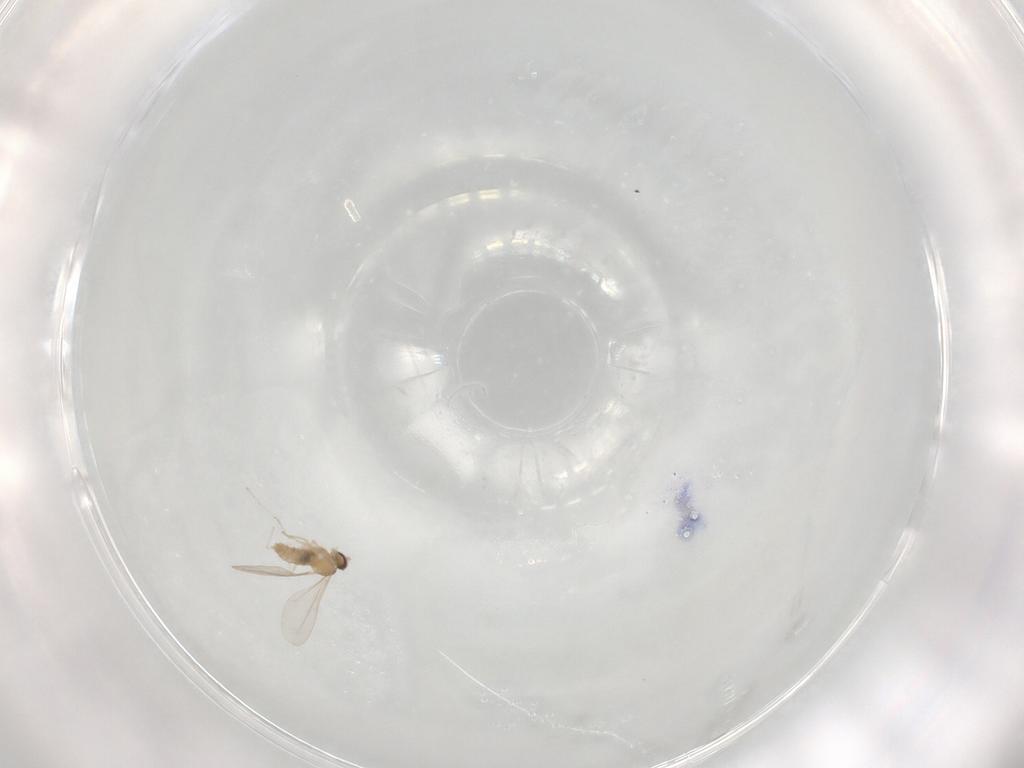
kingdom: Animalia
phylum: Arthropoda
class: Insecta
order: Diptera
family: Cecidomyiidae
